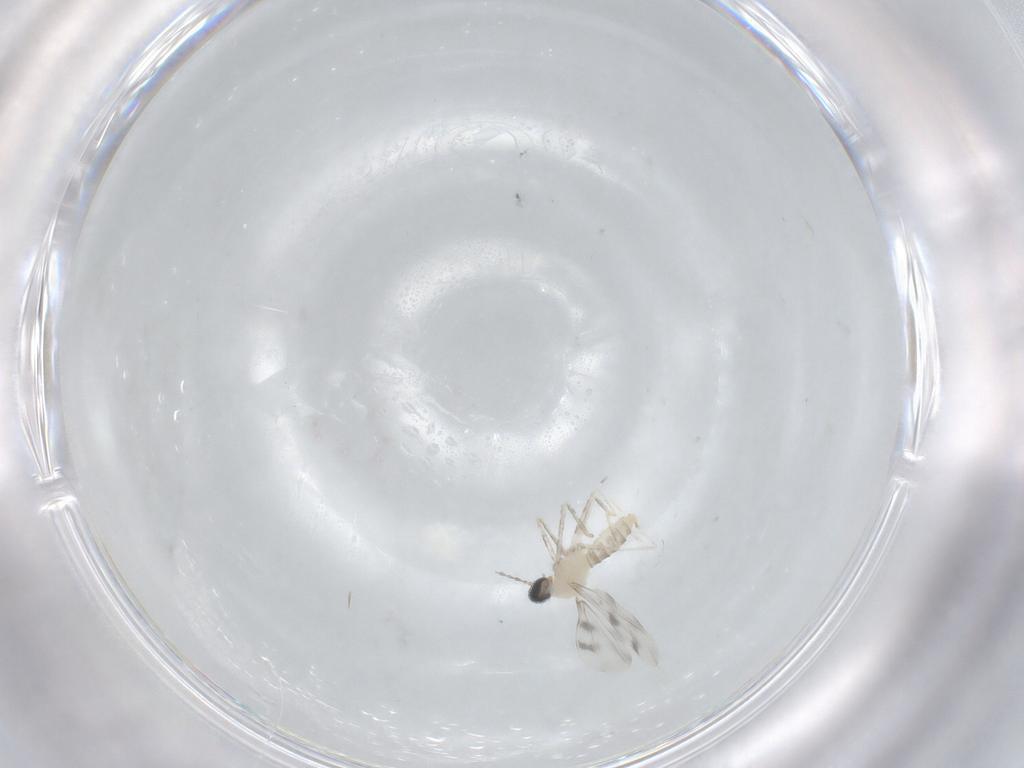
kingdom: Animalia
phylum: Arthropoda
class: Insecta
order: Diptera
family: Cecidomyiidae
